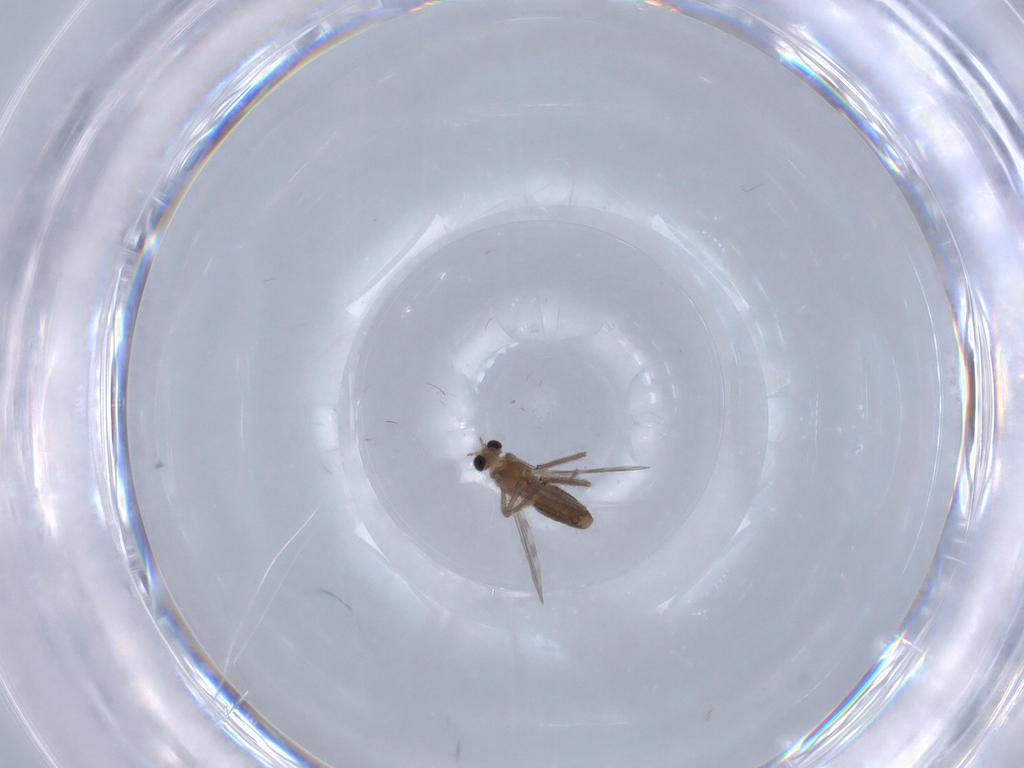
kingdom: Animalia
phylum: Arthropoda
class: Insecta
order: Diptera
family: Chironomidae
